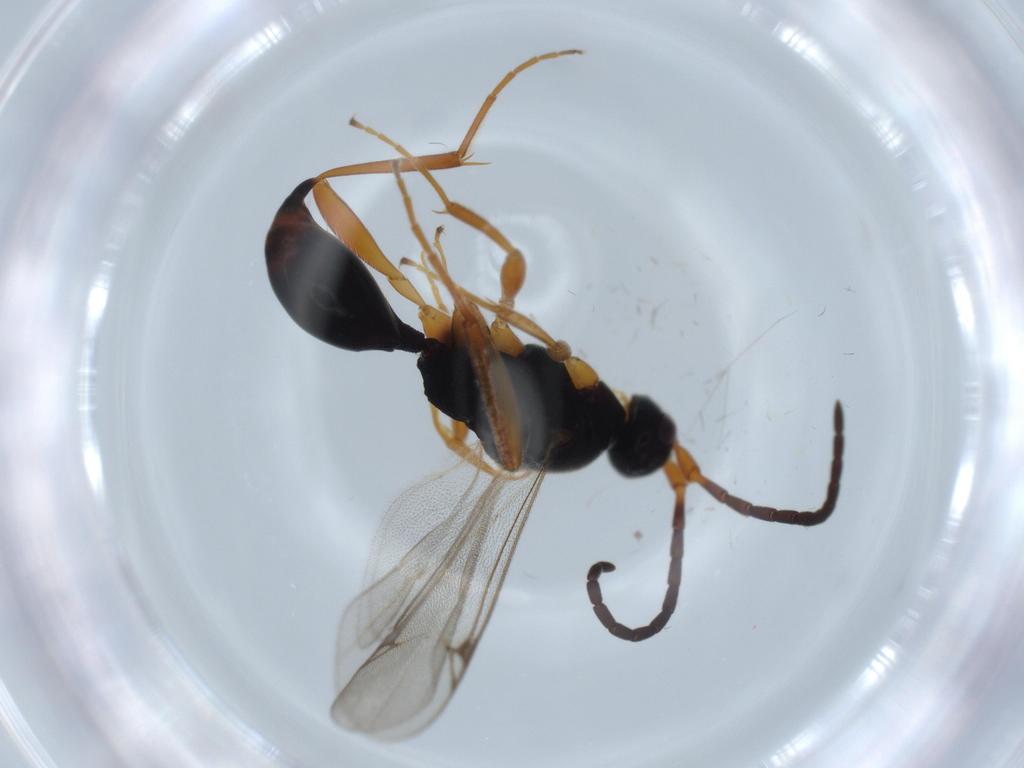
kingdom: Animalia
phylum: Arthropoda
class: Insecta
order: Hymenoptera
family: Proctotrupidae
